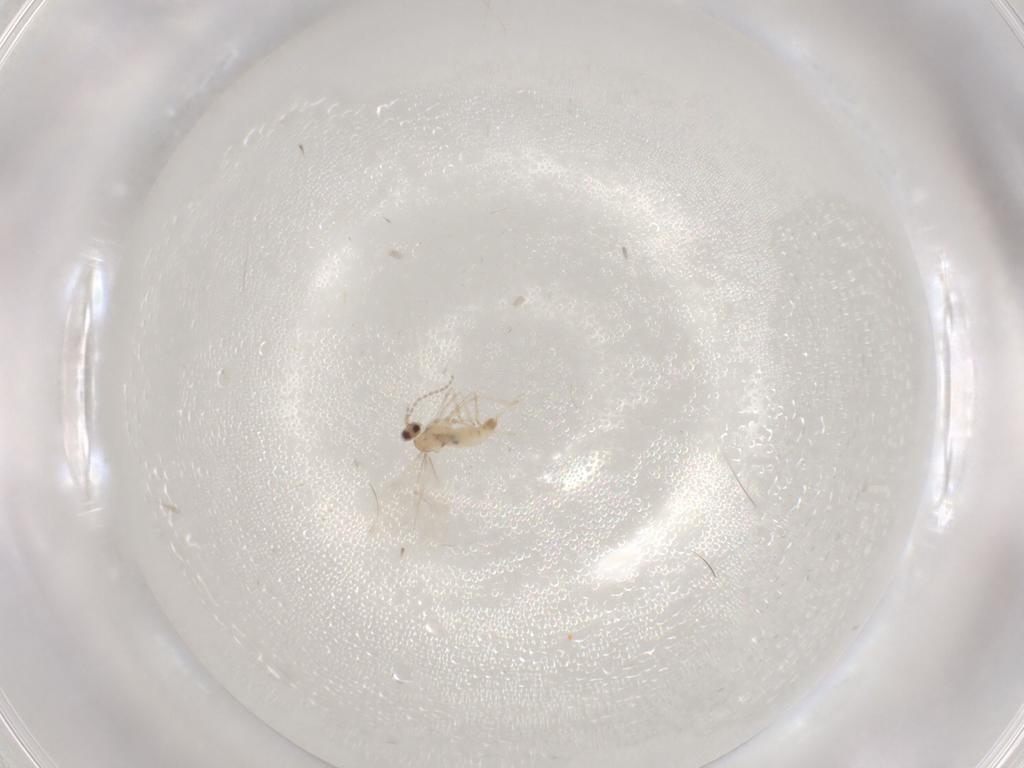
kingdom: Animalia
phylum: Arthropoda
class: Insecta
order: Diptera
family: Cecidomyiidae
